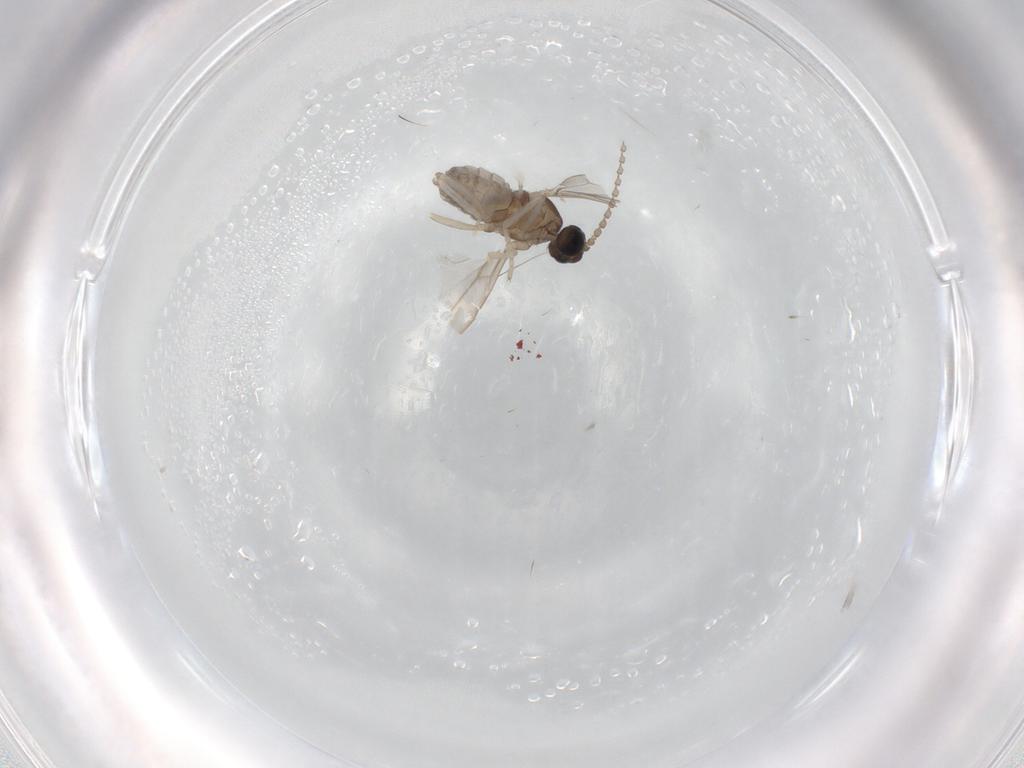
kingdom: Animalia
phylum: Arthropoda
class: Insecta
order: Diptera
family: Cecidomyiidae
